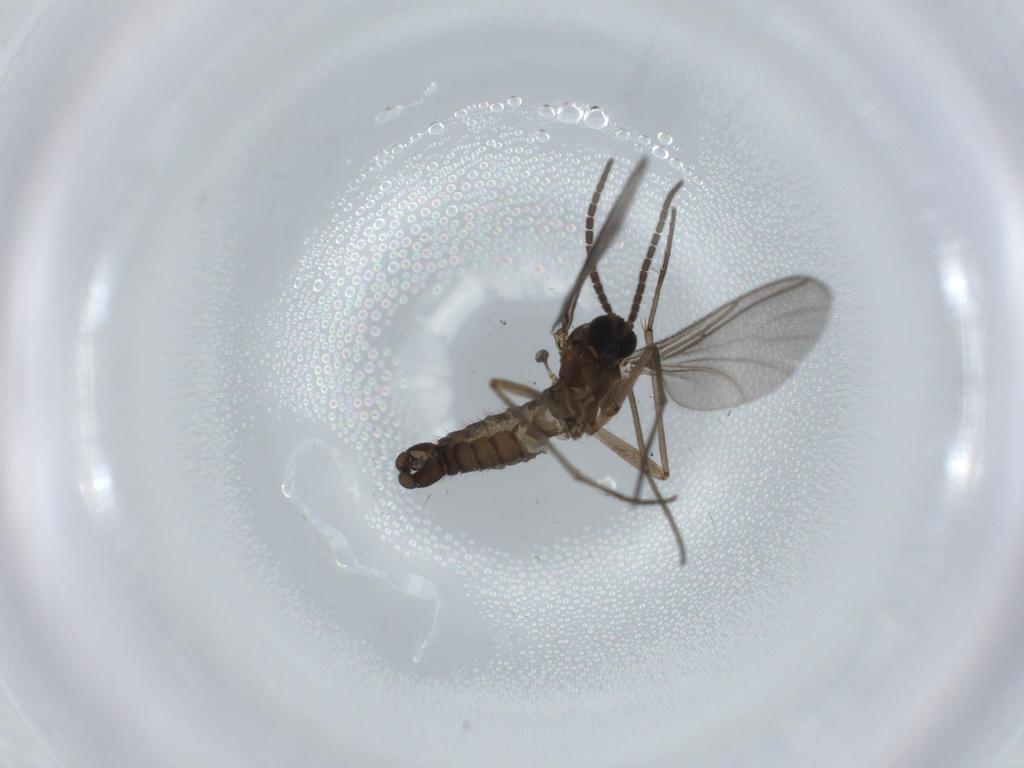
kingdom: Animalia
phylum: Arthropoda
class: Insecta
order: Diptera
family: Sciaridae
